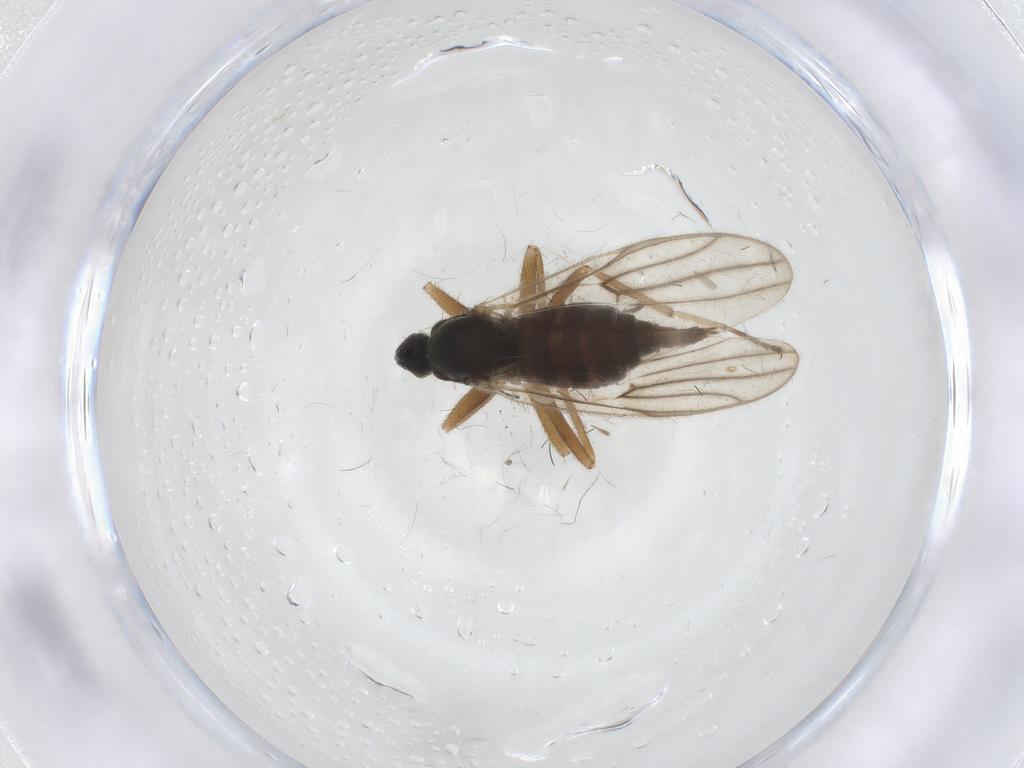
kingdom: Animalia
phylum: Arthropoda
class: Insecta
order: Diptera
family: Hybotidae
